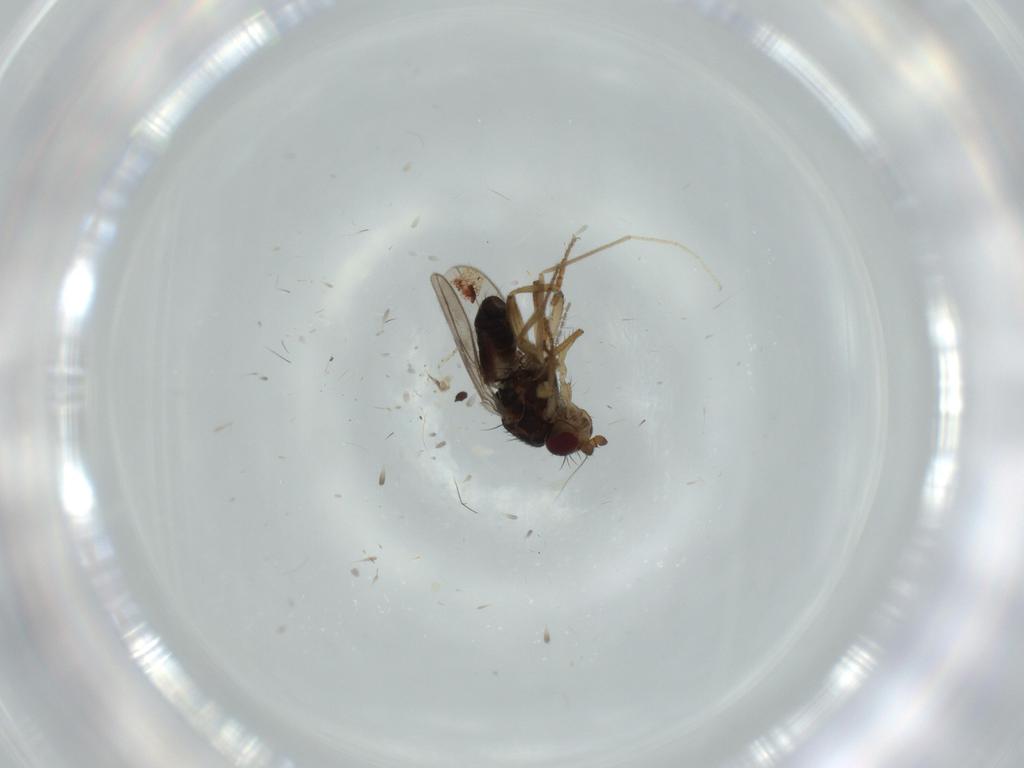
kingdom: Animalia
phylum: Arthropoda
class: Insecta
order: Diptera
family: Sphaeroceridae
